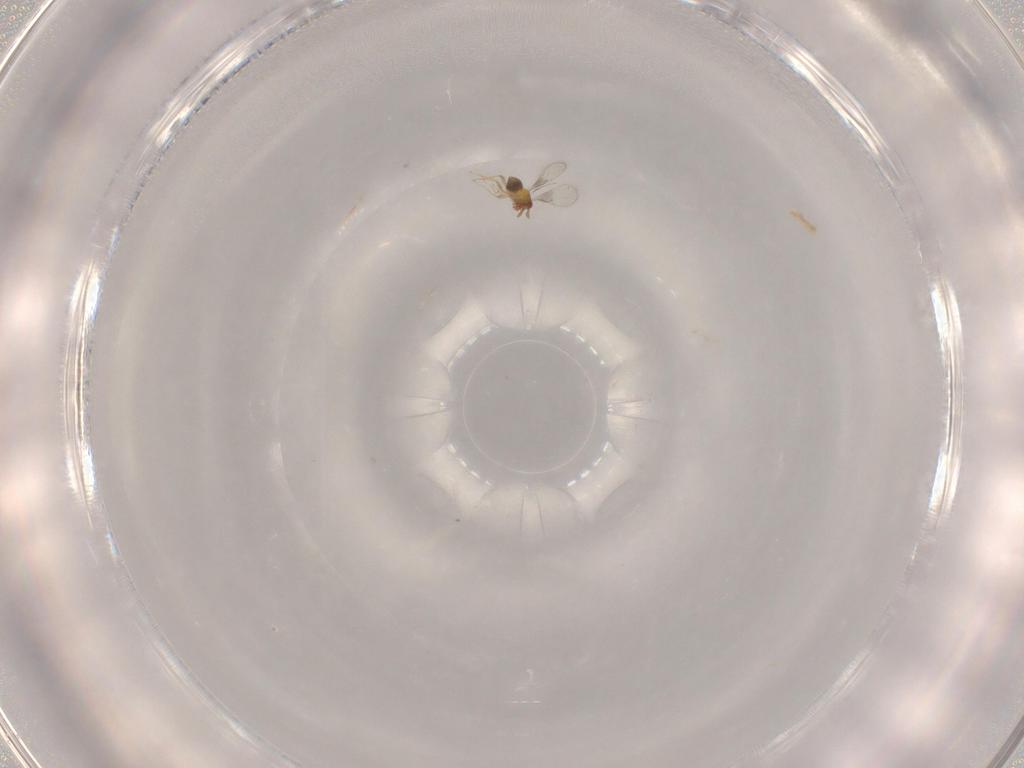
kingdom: Animalia
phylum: Arthropoda
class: Insecta
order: Hymenoptera
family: Trichogrammatidae
